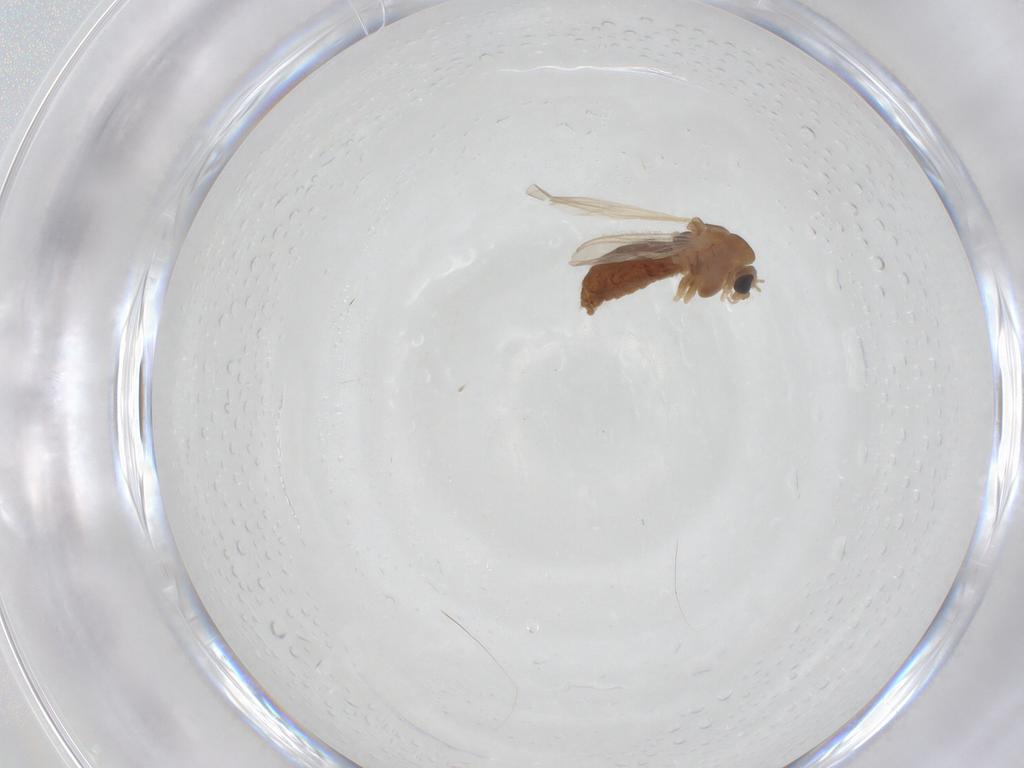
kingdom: Animalia
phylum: Arthropoda
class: Insecta
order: Diptera
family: Chironomidae
